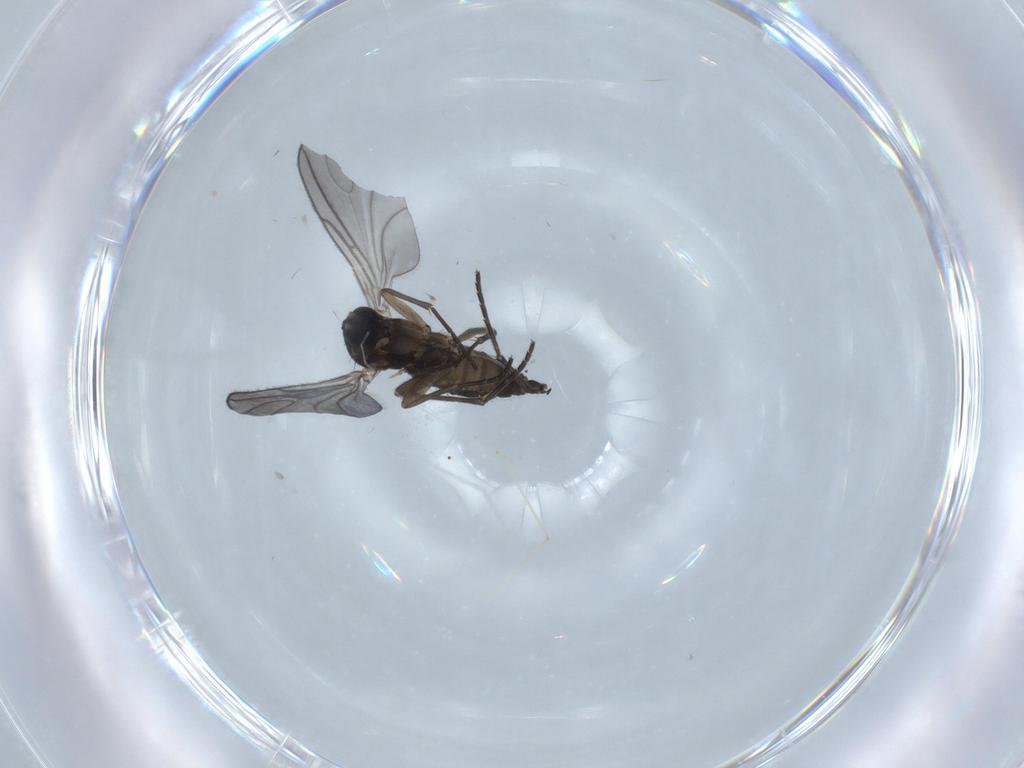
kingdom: Animalia
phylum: Arthropoda
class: Insecta
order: Diptera
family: Sciaridae
